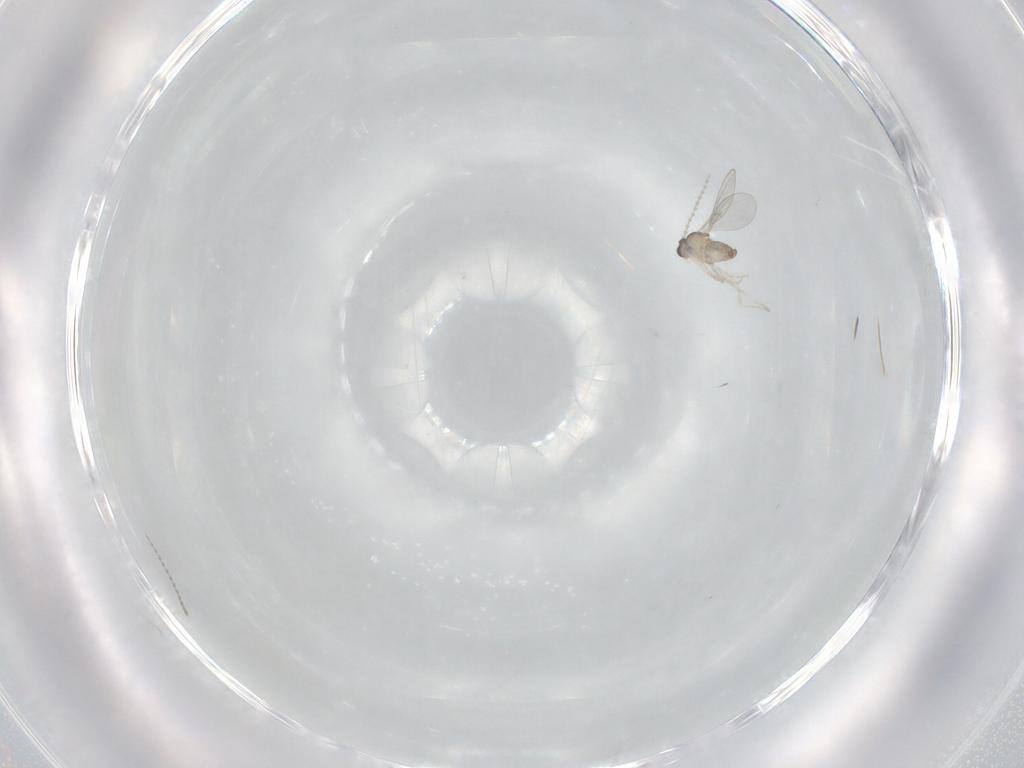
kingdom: Animalia
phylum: Arthropoda
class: Insecta
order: Diptera
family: Cecidomyiidae
